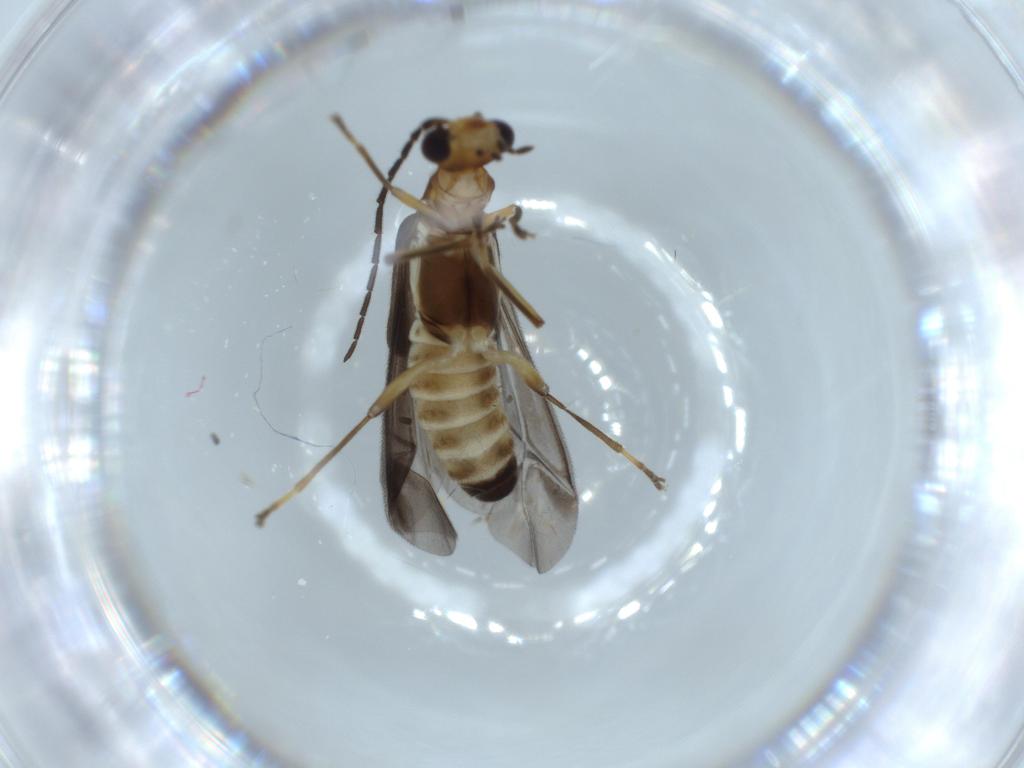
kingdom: Animalia
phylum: Arthropoda
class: Insecta
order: Coleoptera
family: Cantharidae
